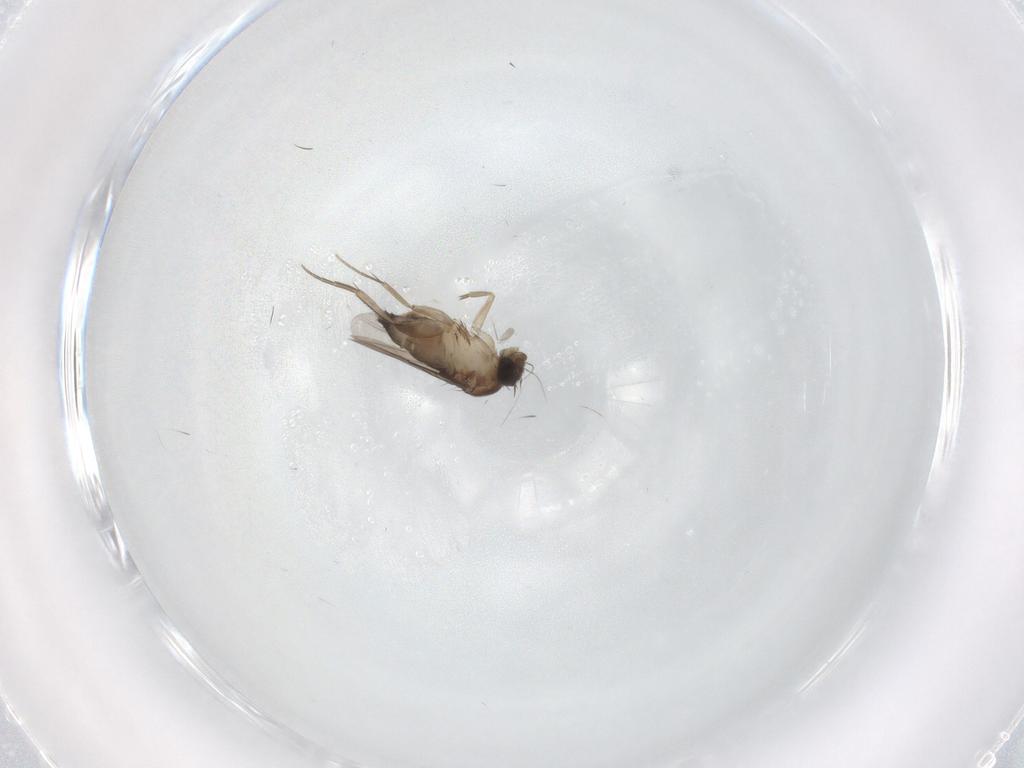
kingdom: Animalia
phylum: Arthropoda
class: Insecta
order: Diptera
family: Phoridae
